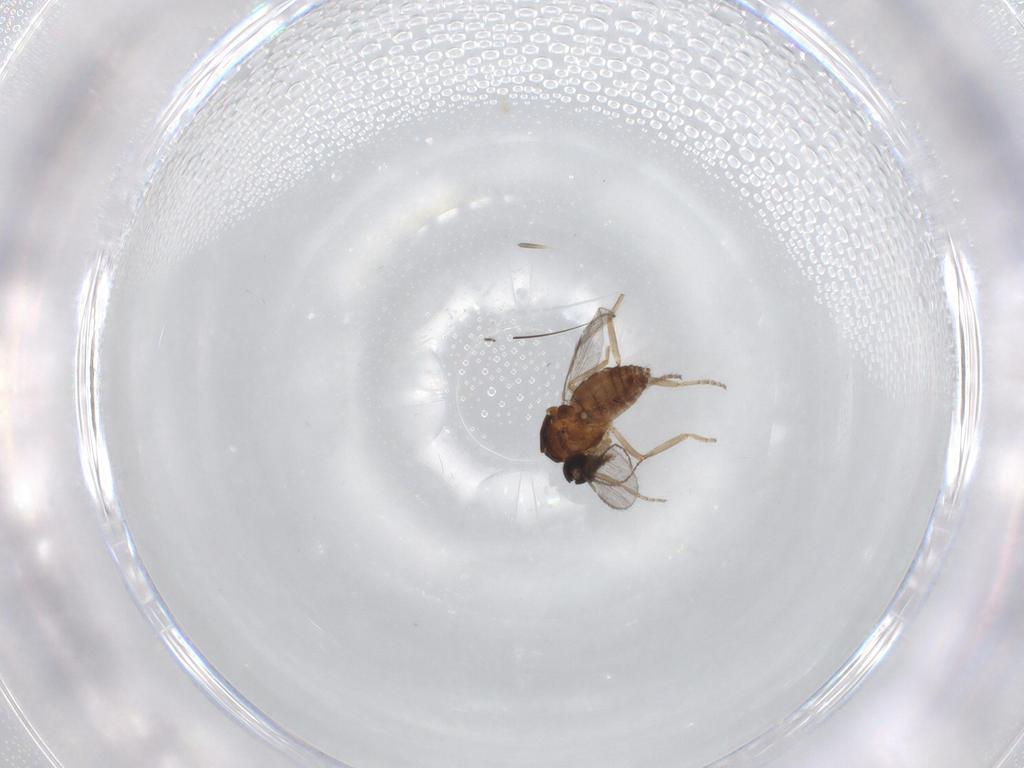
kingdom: Animalia
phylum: Arthropoda
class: Insecta
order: Diptera
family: Ceratopogonidae
